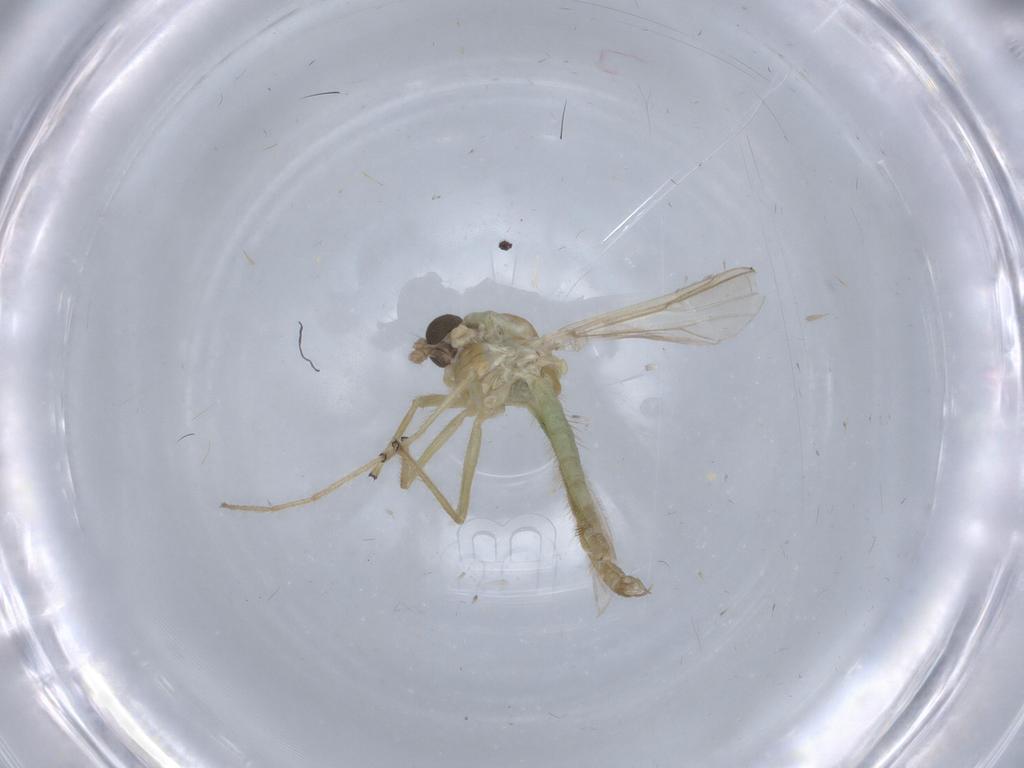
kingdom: Animalia
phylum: Arthropoda
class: Insecta
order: Diptera
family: Chironomidae
